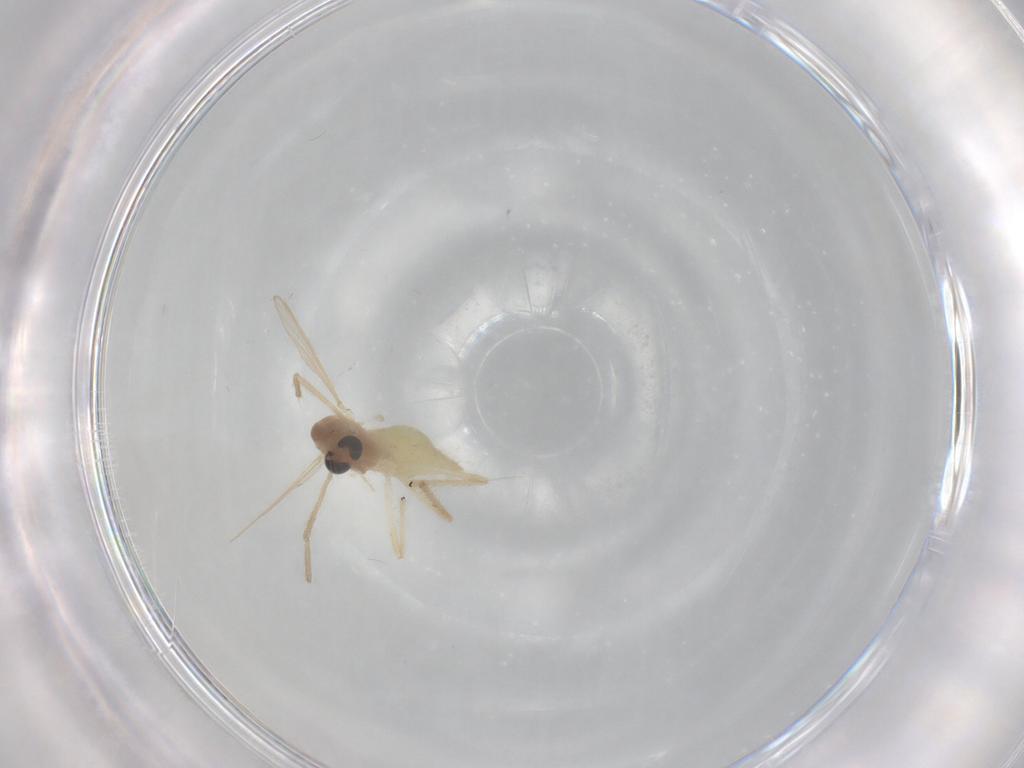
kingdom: Animalia
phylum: Arthropoda
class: Insecta
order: Diptera
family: Chironomidae
